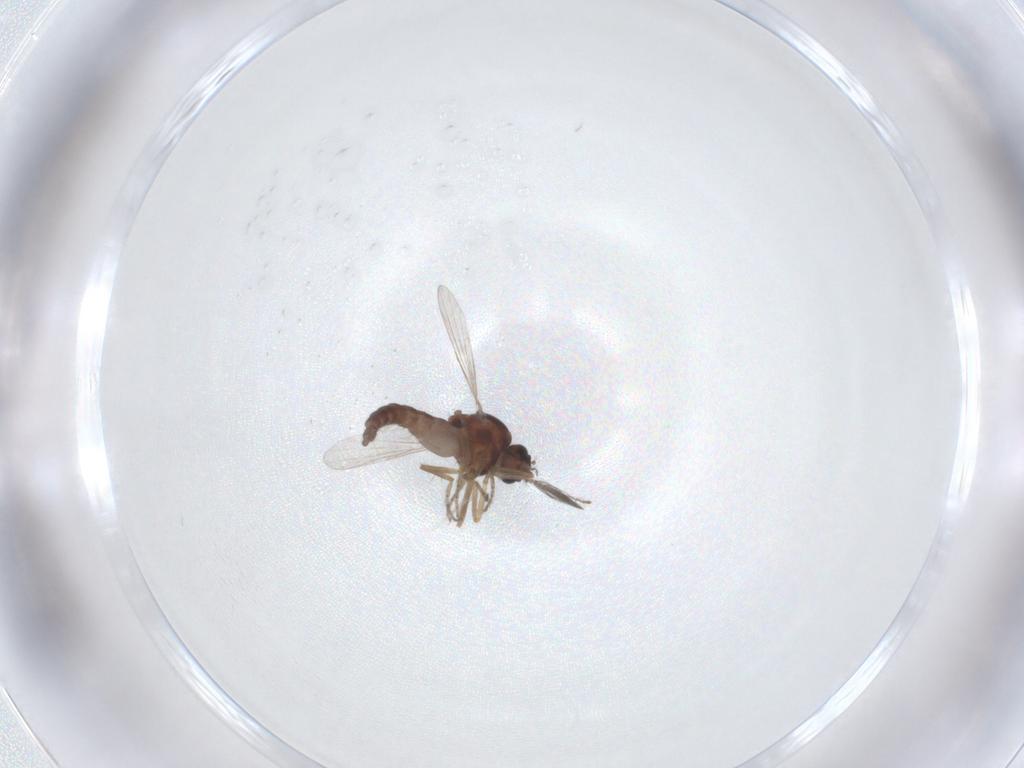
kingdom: Animalia
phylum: Arthropoda
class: Insecta
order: Diptera
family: Ceratopogonidae
